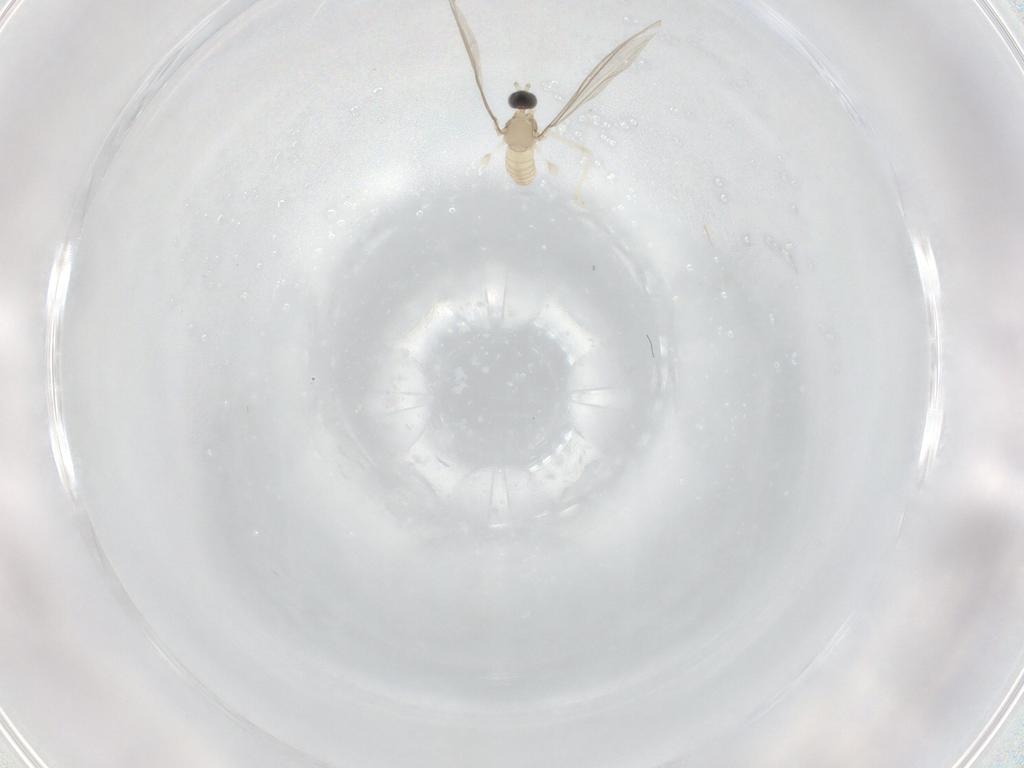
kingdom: Animalia
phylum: Arthropoda
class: Insecta
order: Diptera
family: Cecidomyiidae
